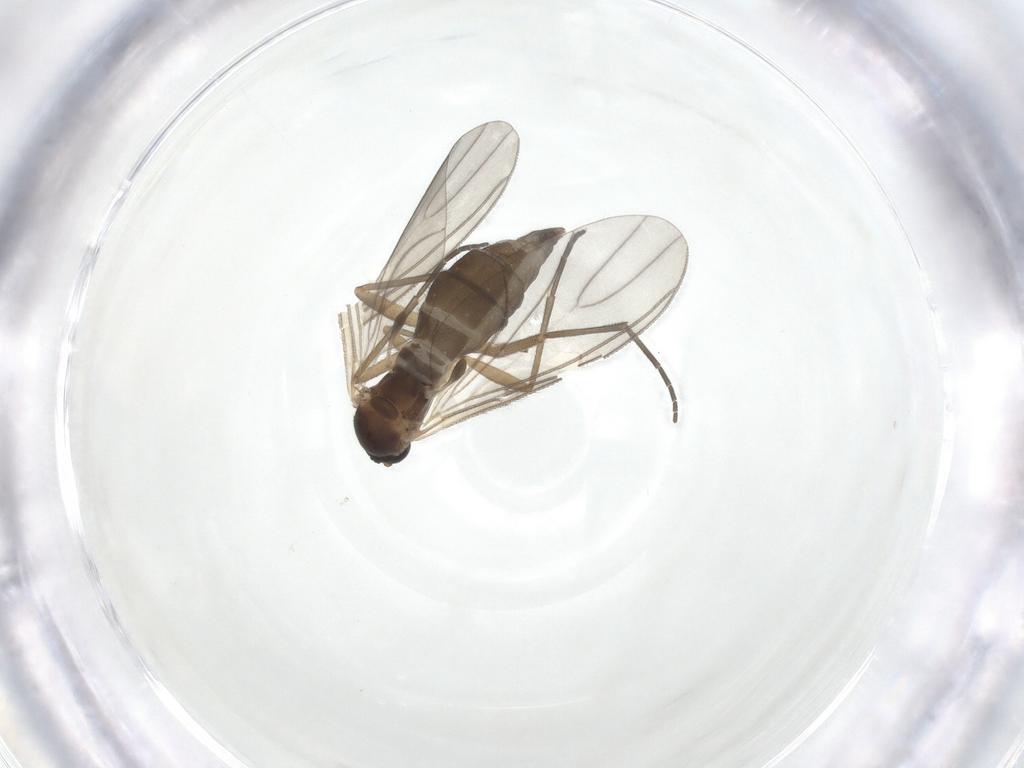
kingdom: Animalia
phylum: Arthropoda
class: Insecta
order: Diptera
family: Sciaridae
